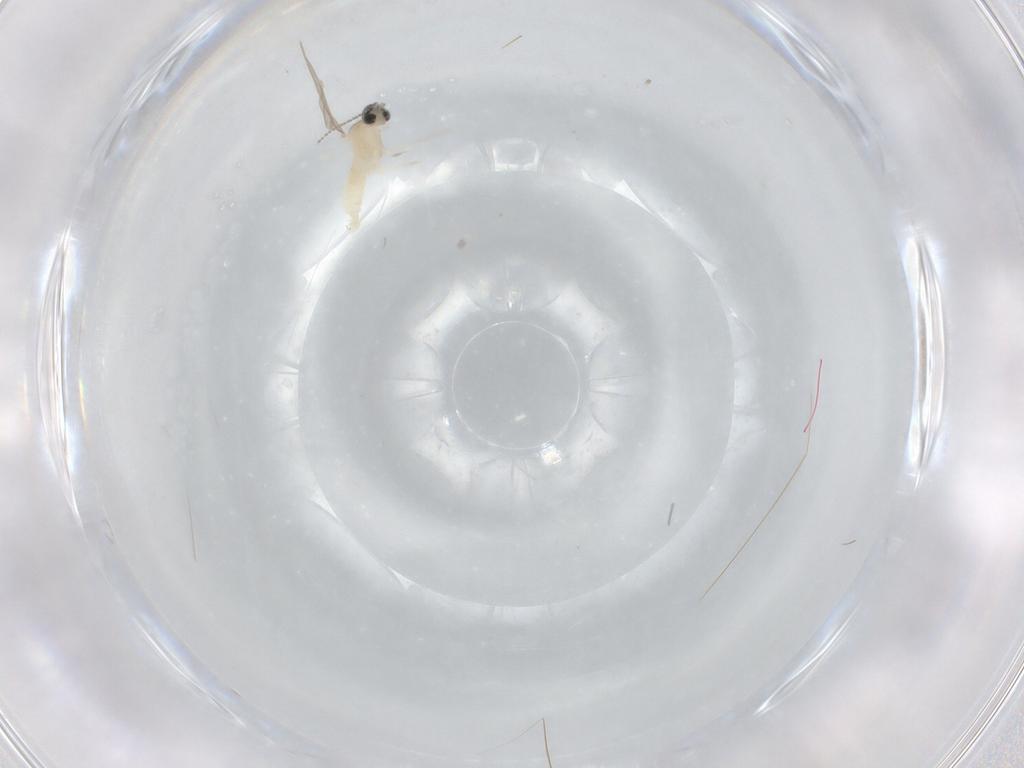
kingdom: Animalia
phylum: Arthropoda
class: Insecta
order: Diptera
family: Cecidomyiidae
